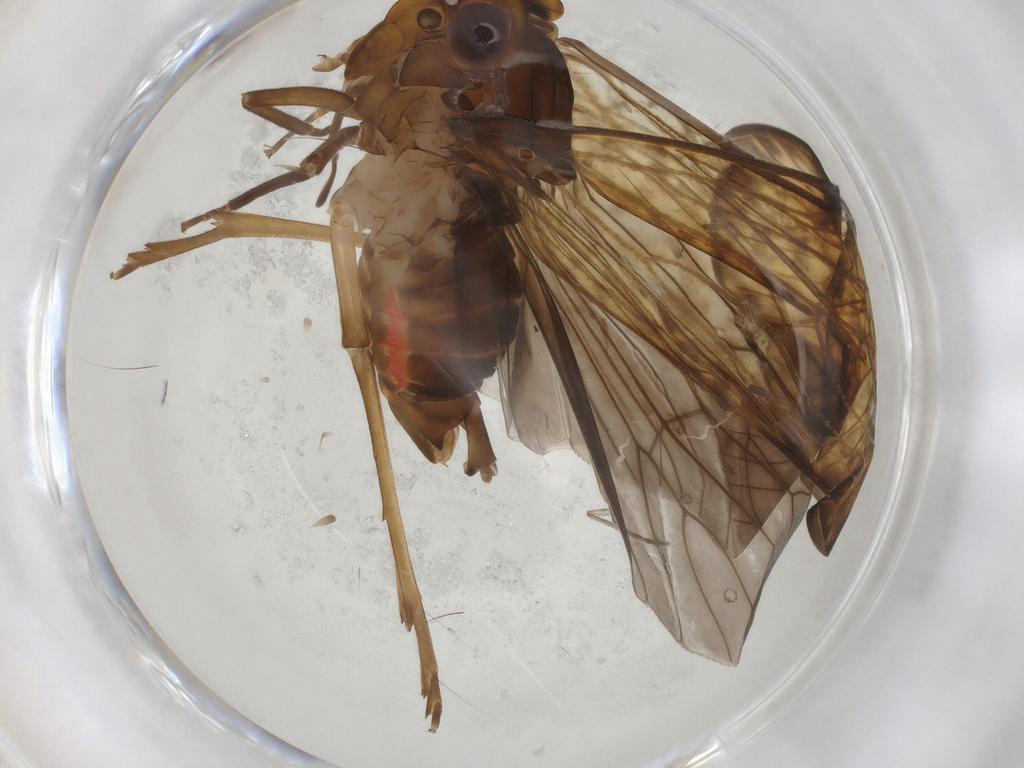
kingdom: Animalia
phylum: Arthropoda
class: Insecta
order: Hemiptera
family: Cixiidae
